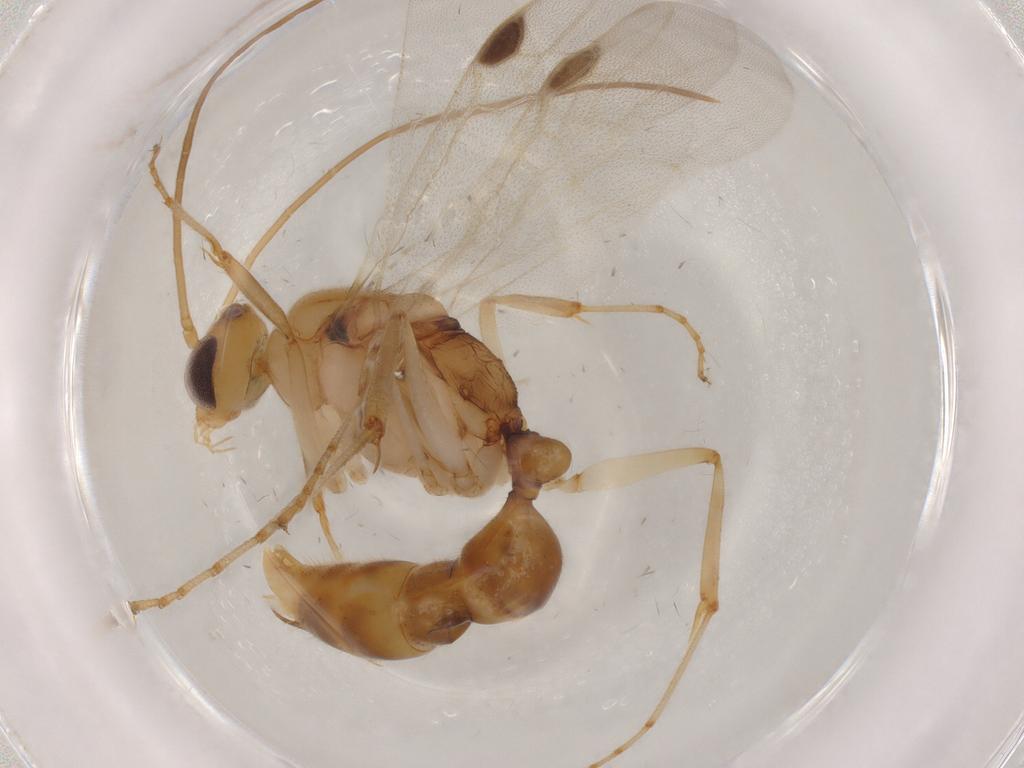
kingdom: Animalia
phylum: Arthropoda
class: Insecta
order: Hymenoptera
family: Formicidae
